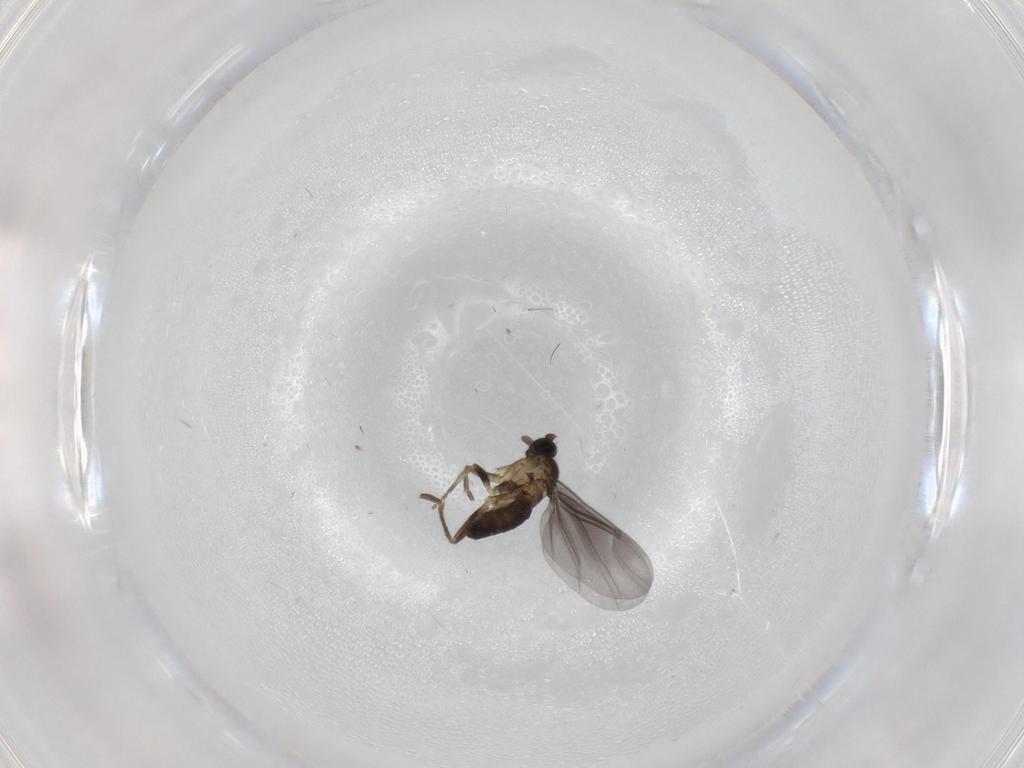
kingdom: Animalia
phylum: Arthropoda
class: Insecta
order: Diptera
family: Phoridae
